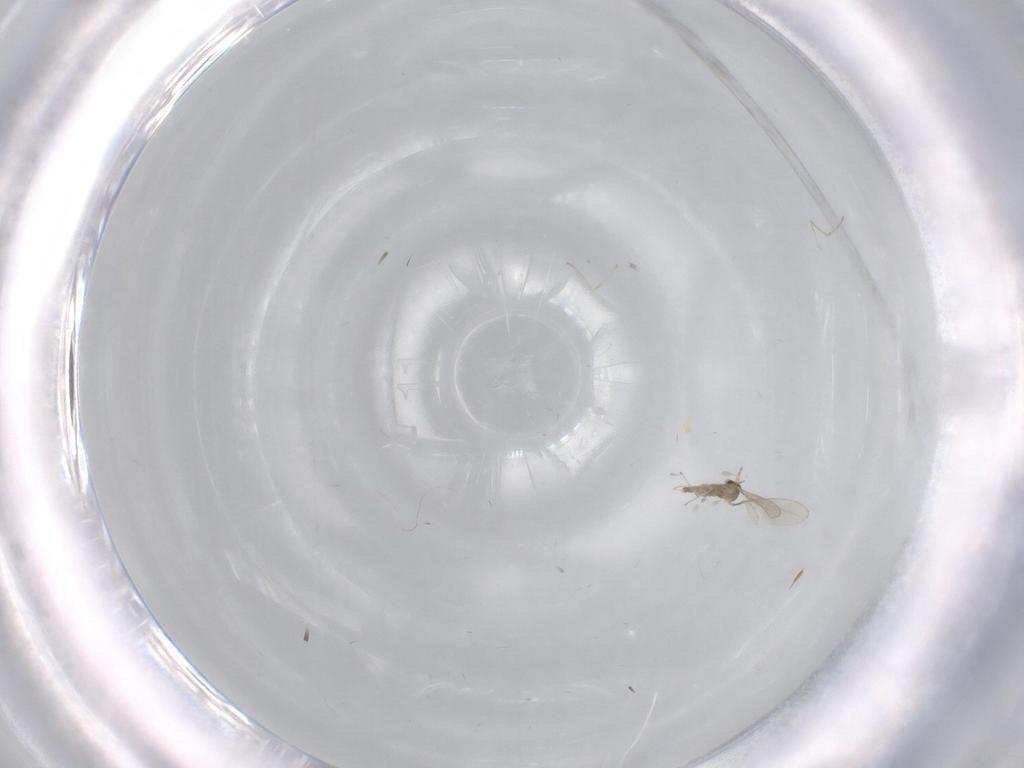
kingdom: Animalia
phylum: Arthropoda
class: Insecta
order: Diptera
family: Cecidomyiidae
